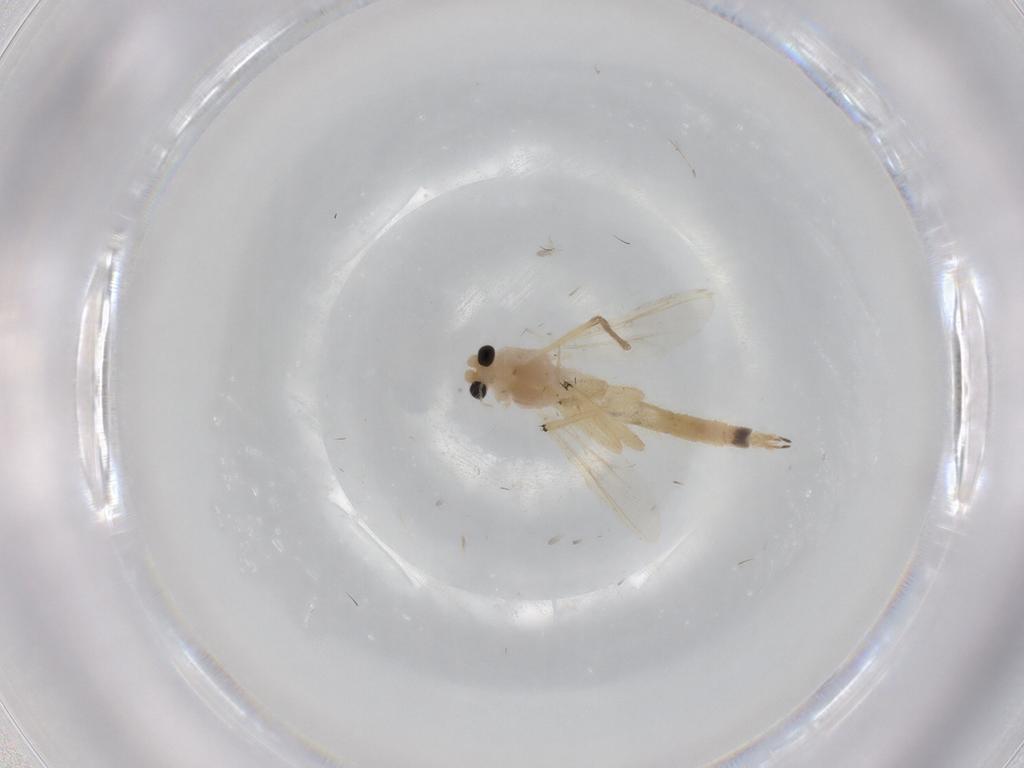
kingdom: Animalia
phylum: Arthropoda
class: Insecta
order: Diptera
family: Chironomidae
